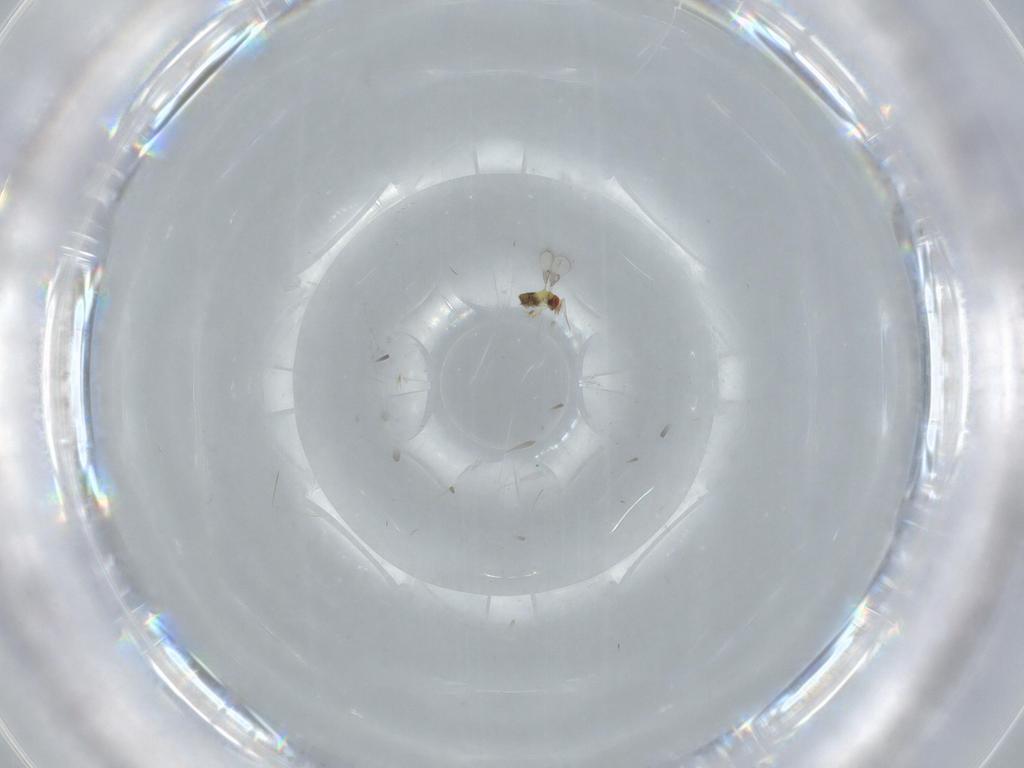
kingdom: Animalia
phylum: Arthropoda
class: Insecta
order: Hymenoptera
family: Trichogrammatidae
